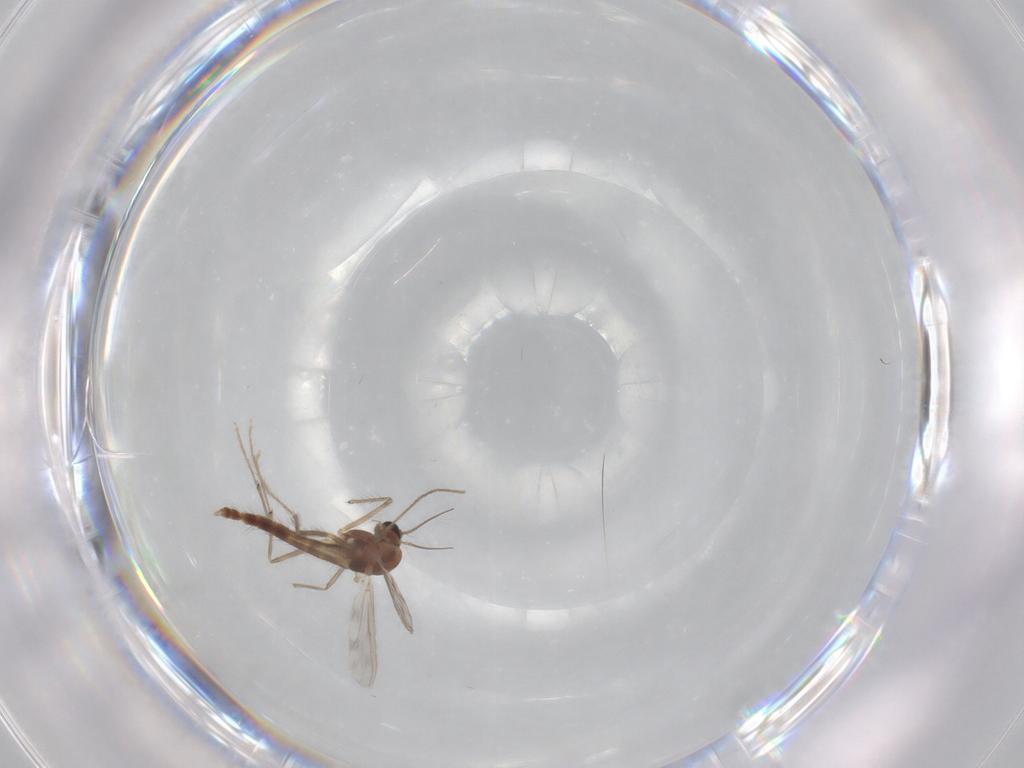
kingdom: Animalia
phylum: Arthropoda
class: Insecta
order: Diptera
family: Chironomidae
